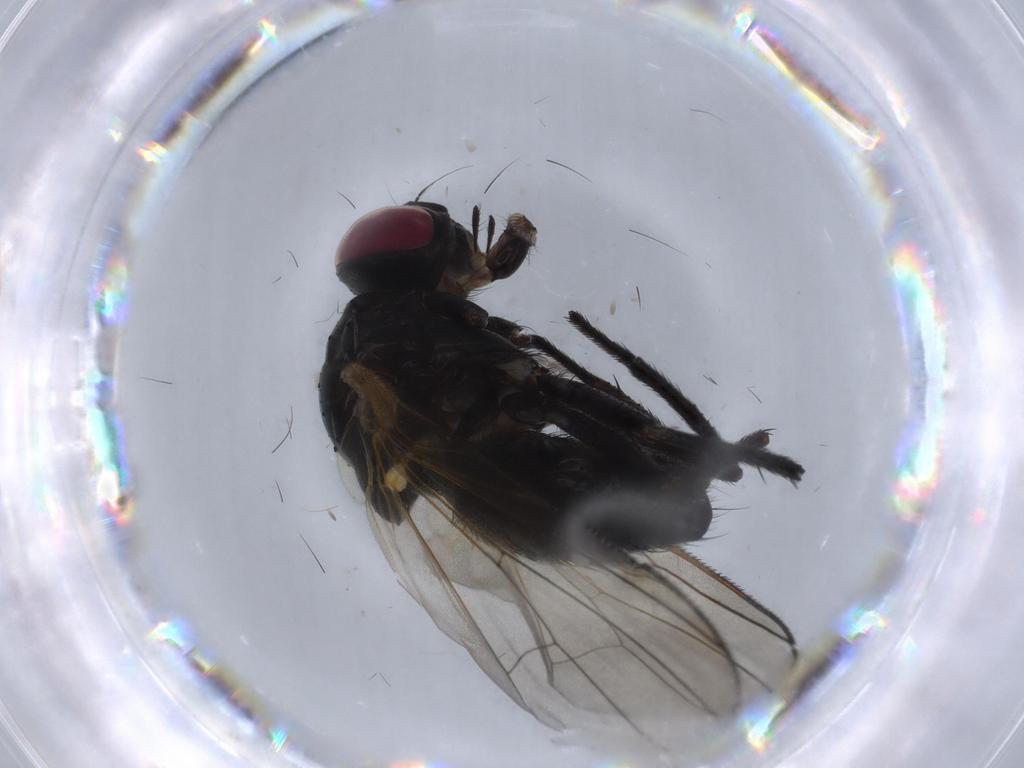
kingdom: Animalia
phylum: Arthropoda
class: Insecta
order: Diptera
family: Fannia
